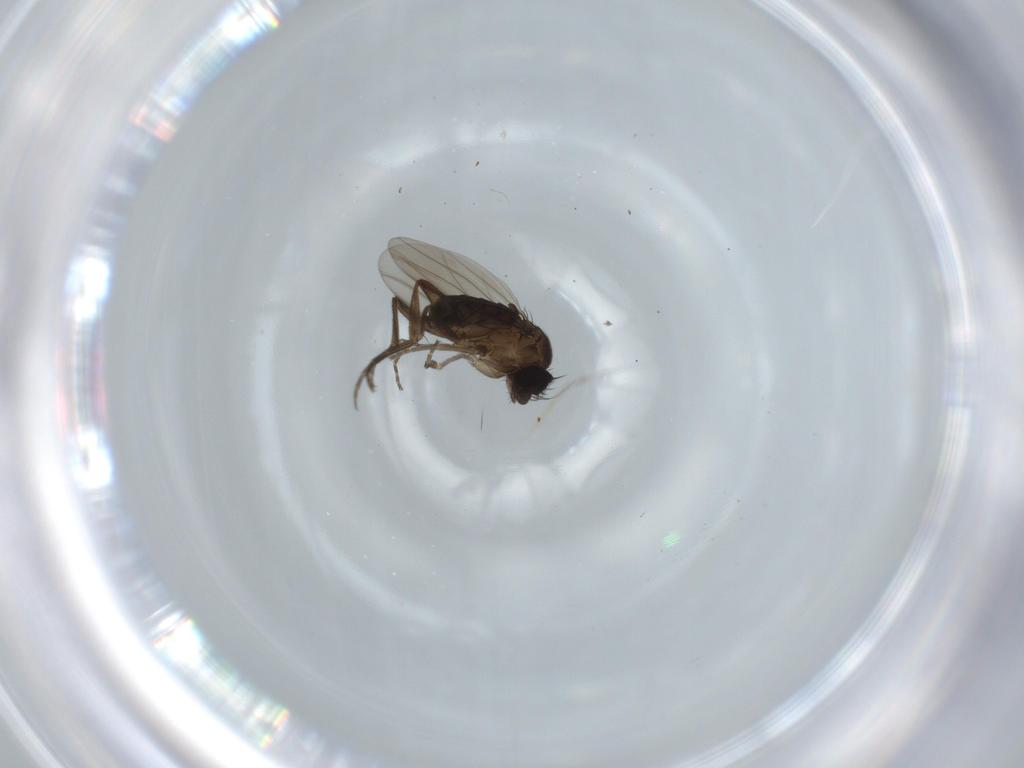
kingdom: Animalia
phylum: Arthropoda
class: Insecta
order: Diptera
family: Phoridae
